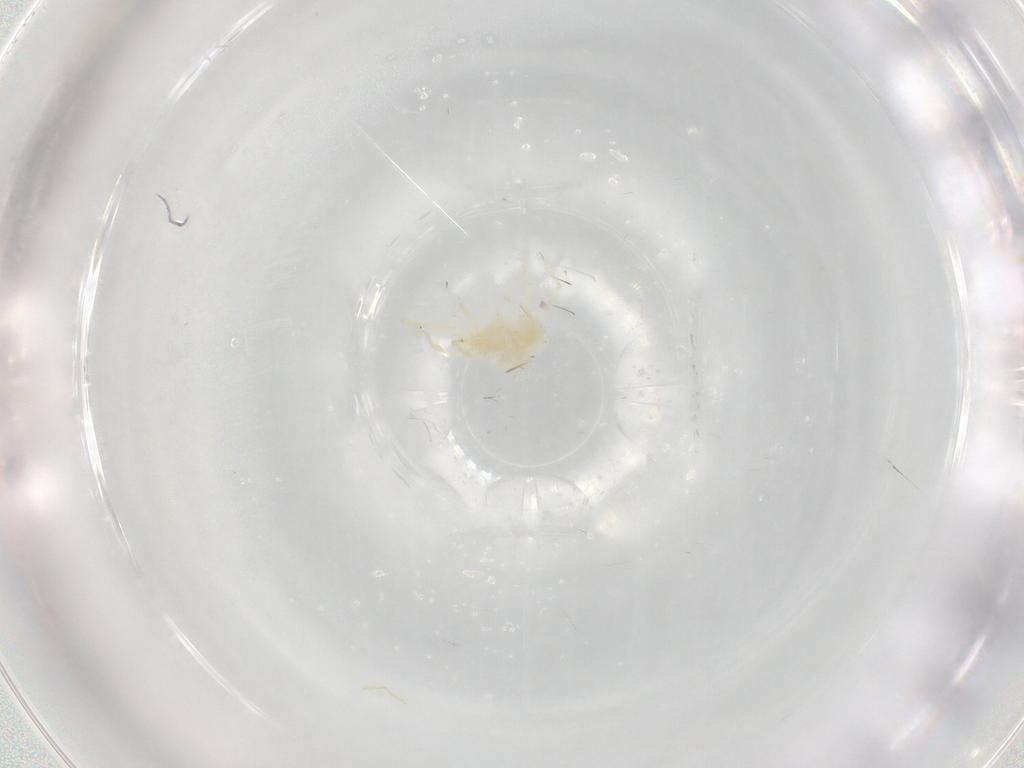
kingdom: Animalia
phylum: Arthropoda
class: Arachnida
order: Trombidiformes
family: Erythraeidae
